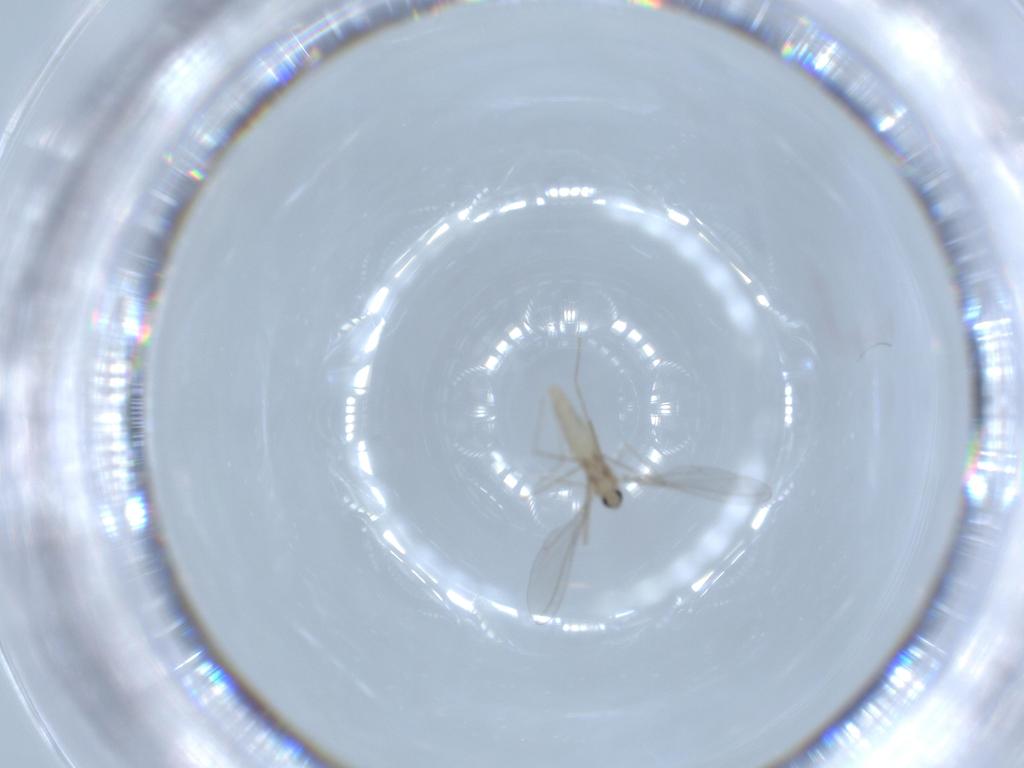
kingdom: Animalia
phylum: Arthropoda
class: Insecta
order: Diptera
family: Cecidomyiidae
